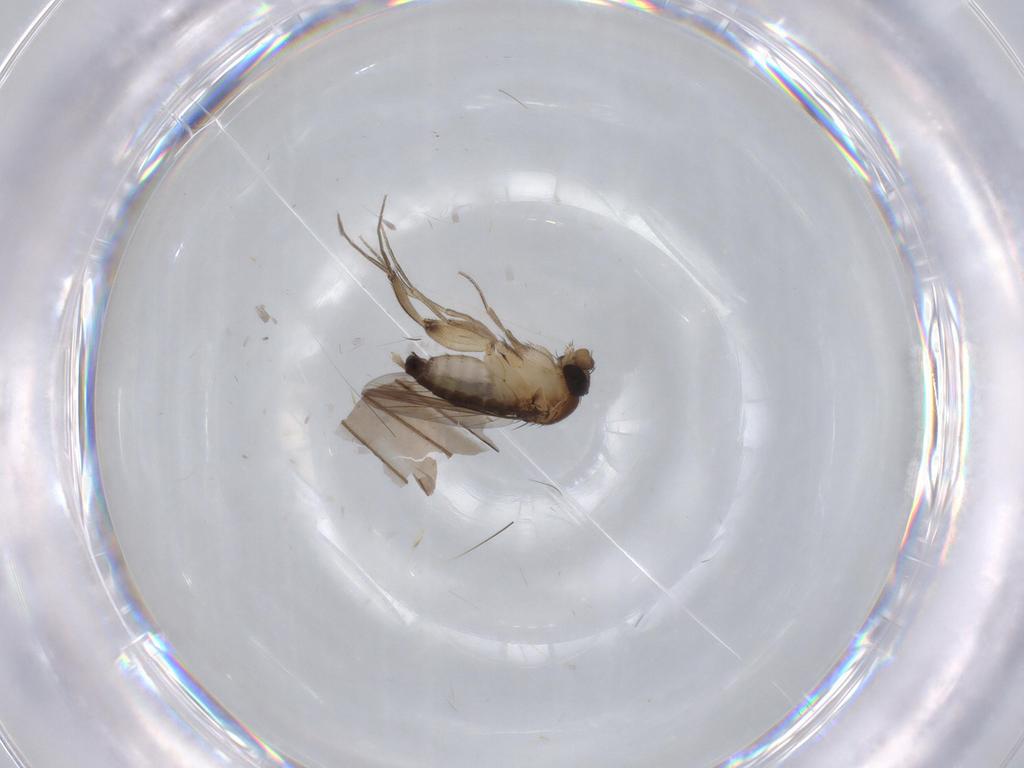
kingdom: Animalia
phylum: Arthropoda
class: Insecta
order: Diptera
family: Phoridae
